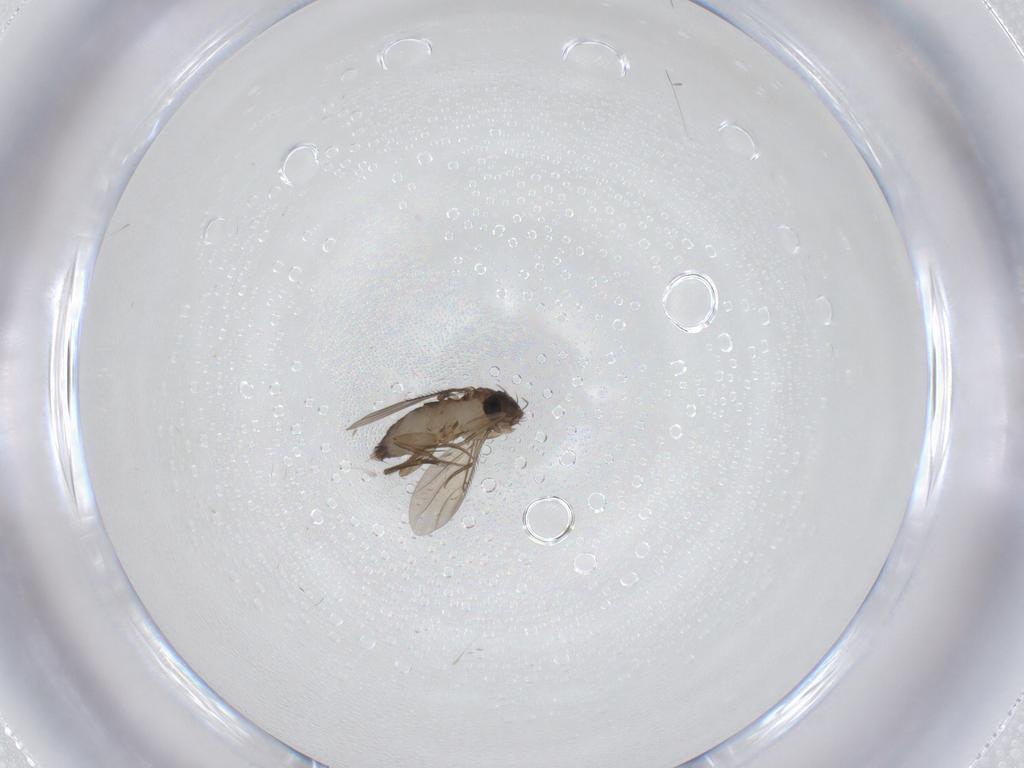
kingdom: Animalia
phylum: Arthropoda
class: Insecta
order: Diptera
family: Phoridae
